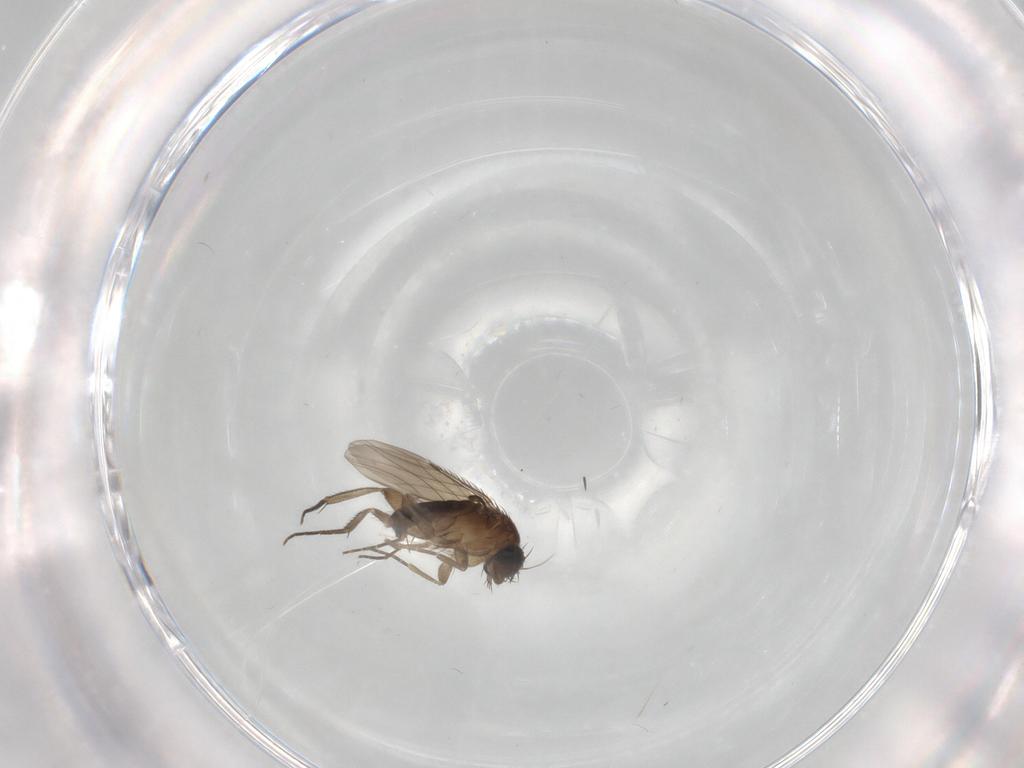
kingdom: Animalia
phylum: Arthropoda
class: Insecta
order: Diptera
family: Phoridae
